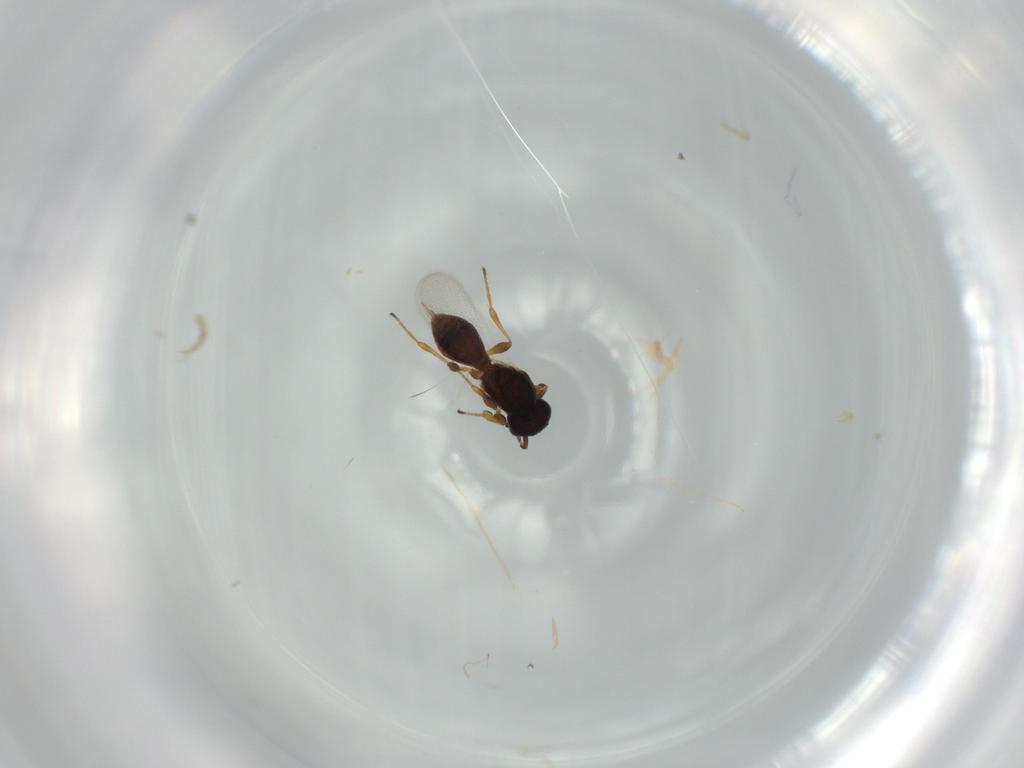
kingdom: Animalia
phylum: Arthropoda
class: Insecta
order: Hymenoptera
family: Platygastridae
